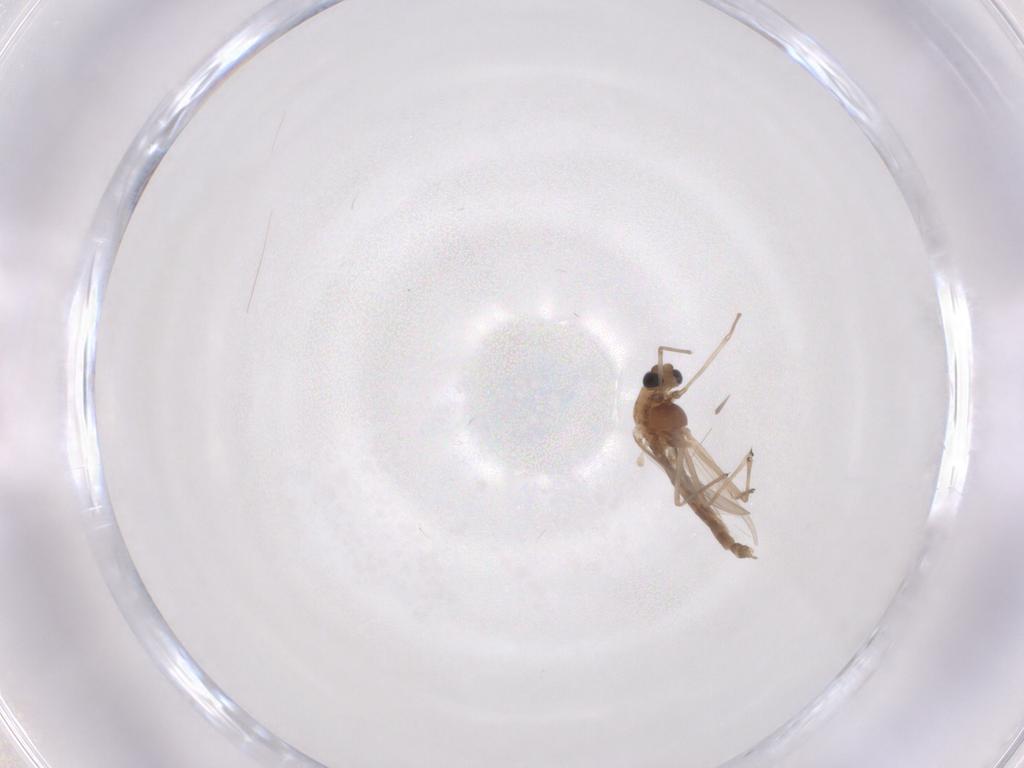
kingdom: Animalia
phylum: Arthropoda
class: Insecta
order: Diptera
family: Chironomidae
